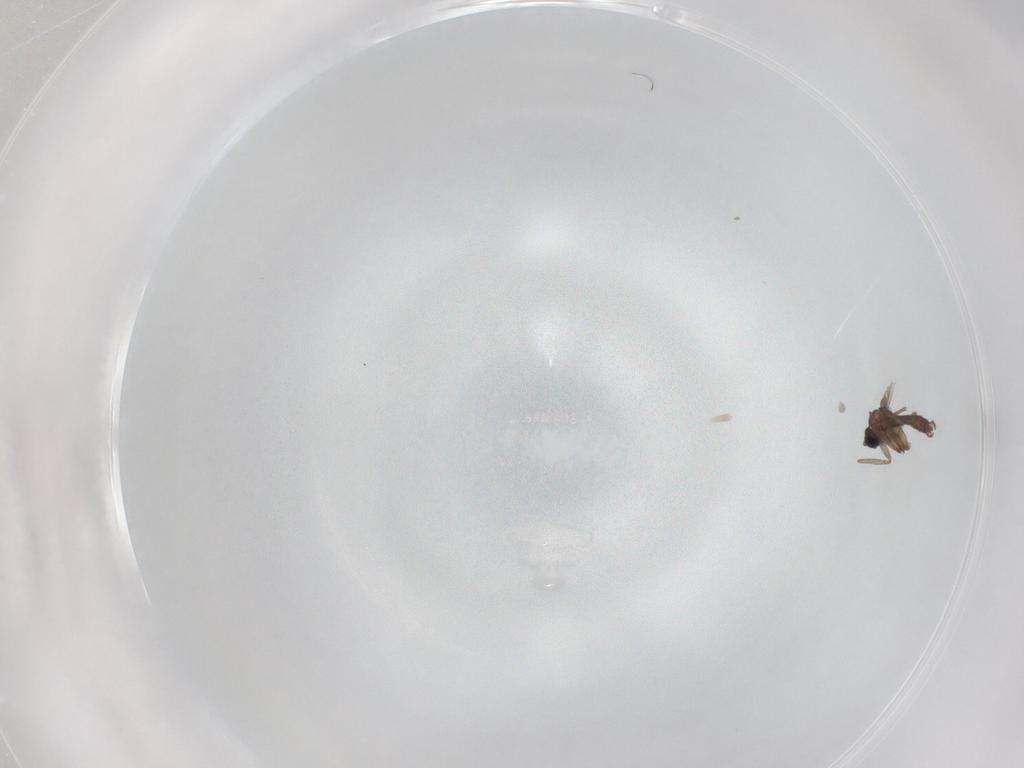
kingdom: Animalia
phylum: Arthropoda
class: Insecta
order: Diptera
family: Sciaridae
